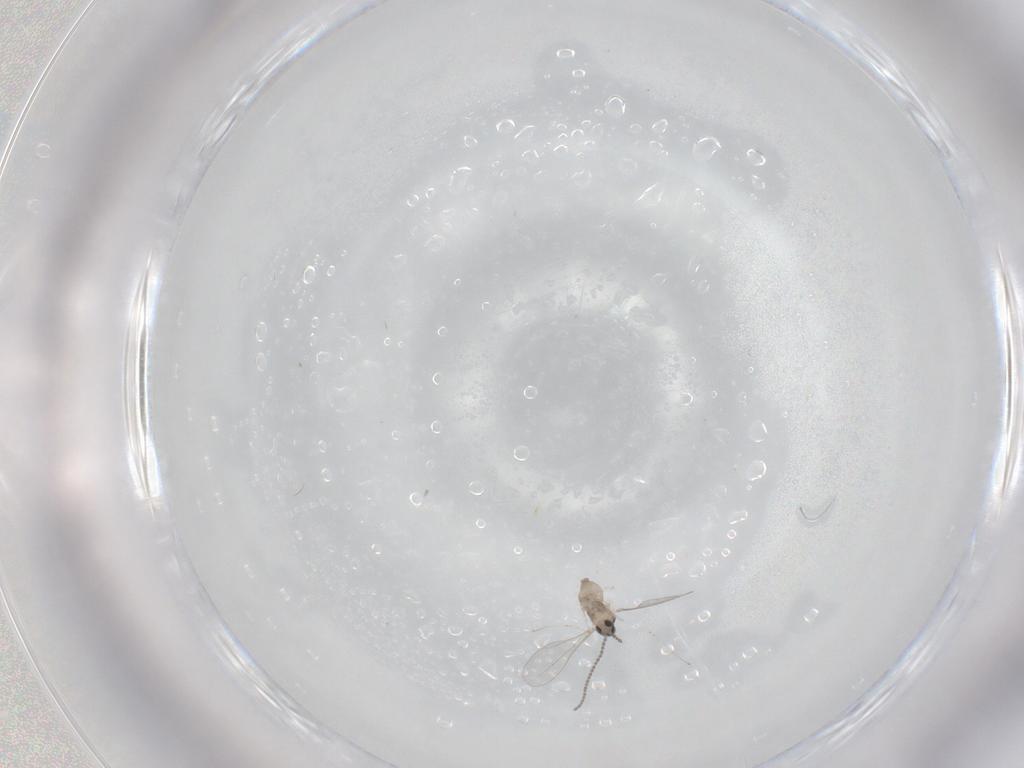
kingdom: Animalia
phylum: Arthropoda
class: Insecta
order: Diptera
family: Cecidomyiidae
